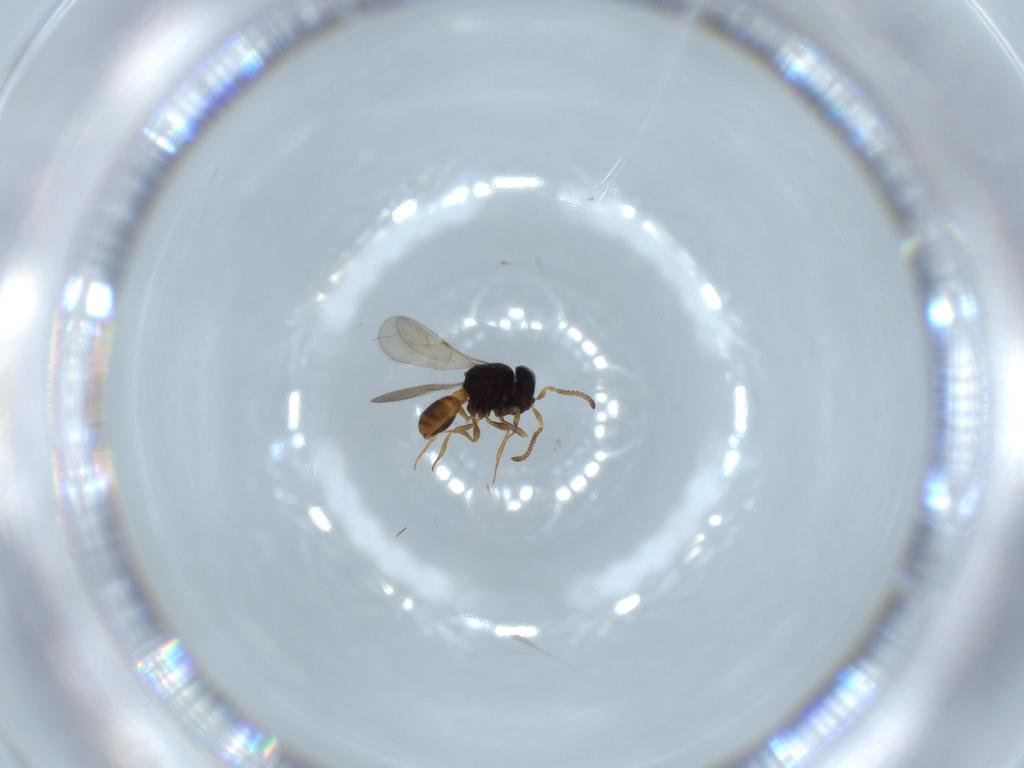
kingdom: Animalia
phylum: Arthropoda
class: Insecta
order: Hymenoptera
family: Scelionidae
